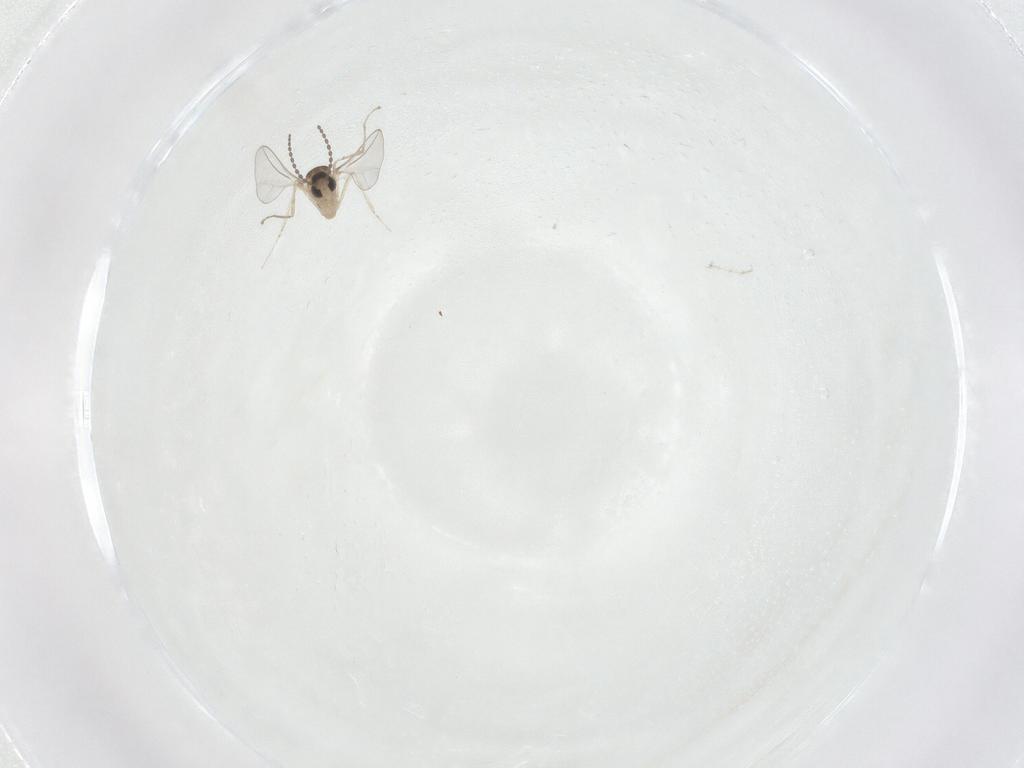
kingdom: Animalia
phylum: Arthropoda
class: Insecta
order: Diptera
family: Cecidomyiidae
